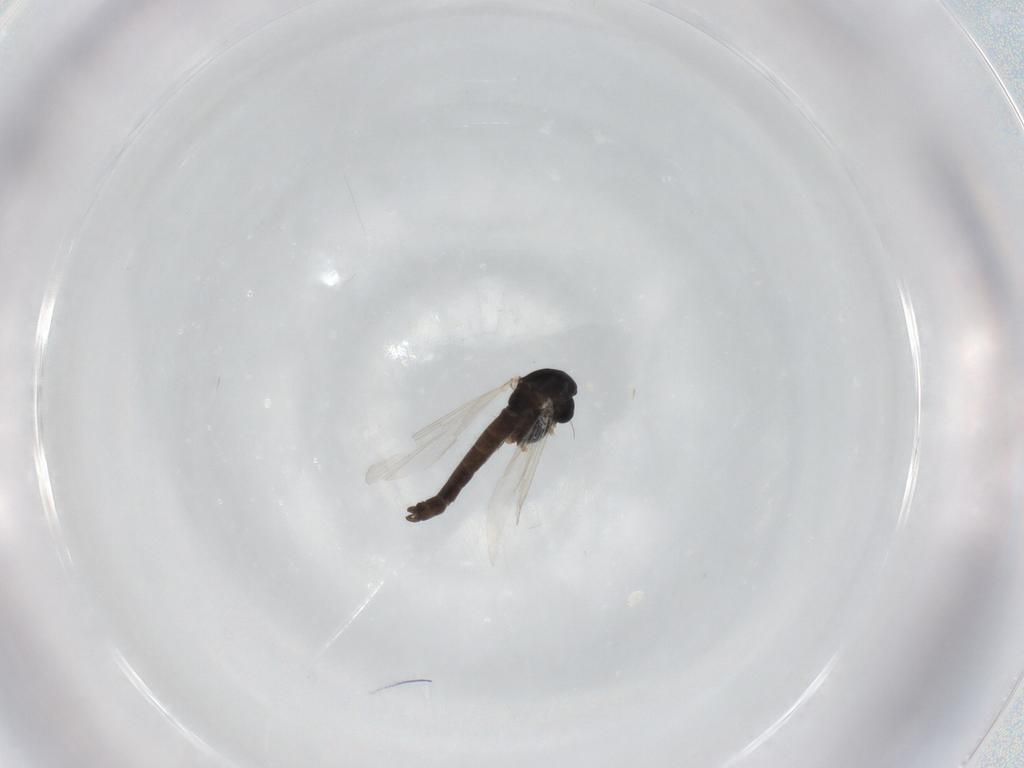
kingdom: Animalia
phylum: Arthropoda
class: Insecta
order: Diptera
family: Chironomidae
